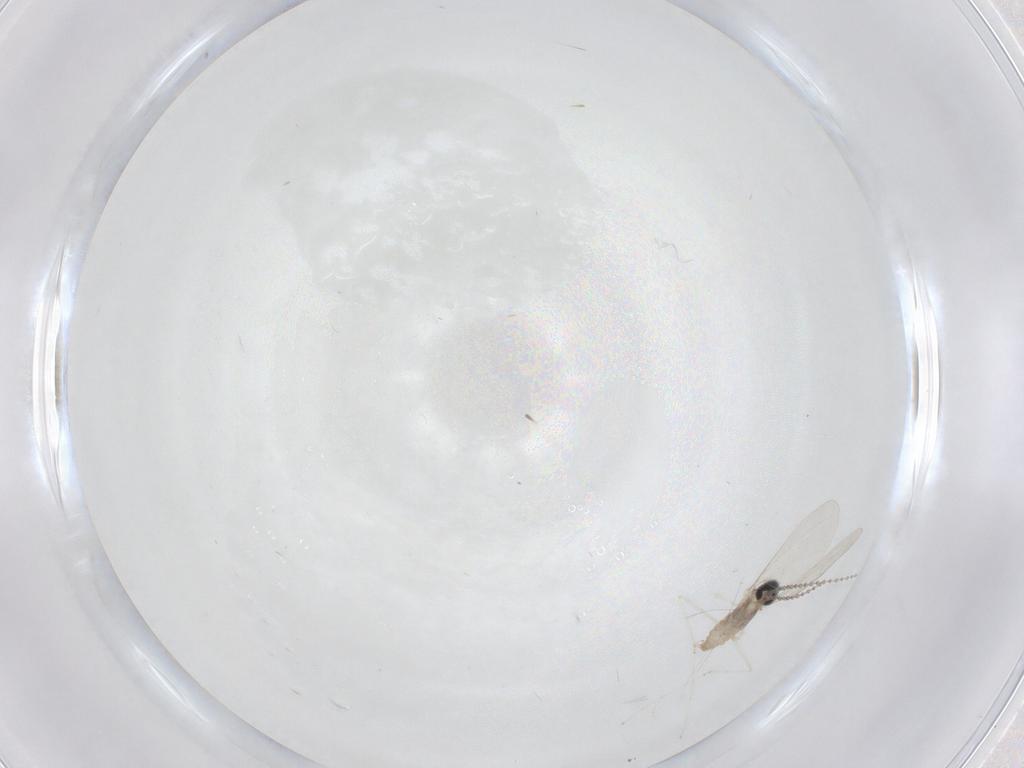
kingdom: Animalia
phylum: Arthropoda
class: Insecta
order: Diptera
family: Cecidomyiidae
